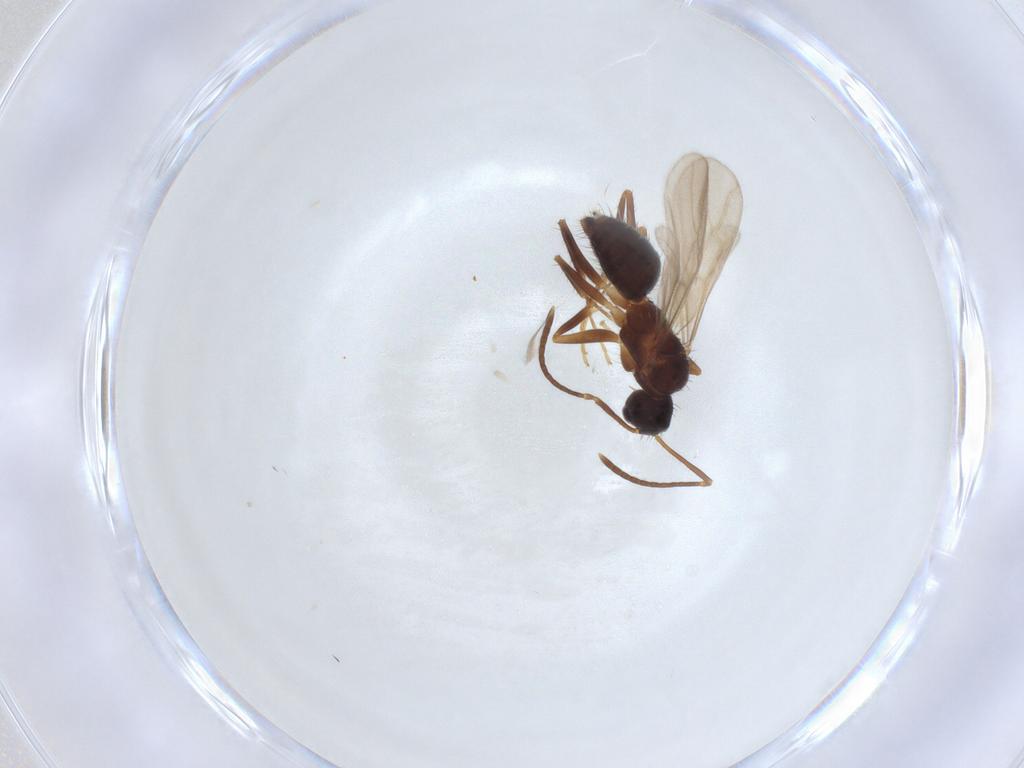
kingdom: Animalia
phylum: Arthropoda
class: Insecta
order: Hymenoptera
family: Formicidae
